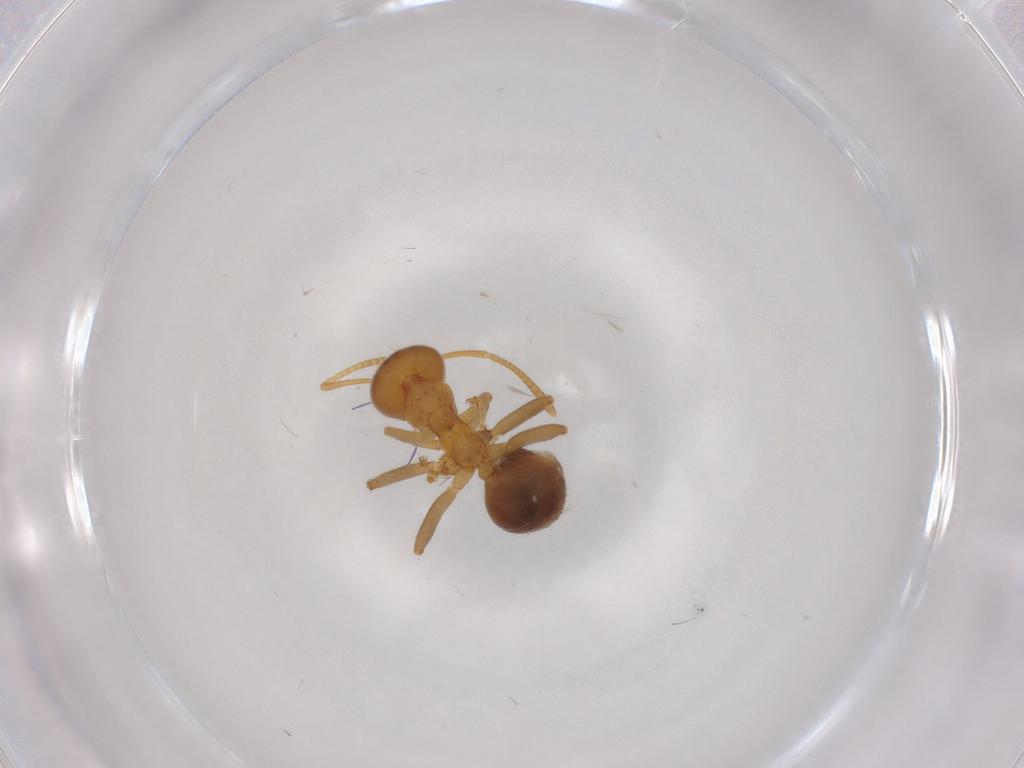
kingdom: Animalia
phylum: Arthropoda
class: Insecta
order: Hymenoptera
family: Formicidae
